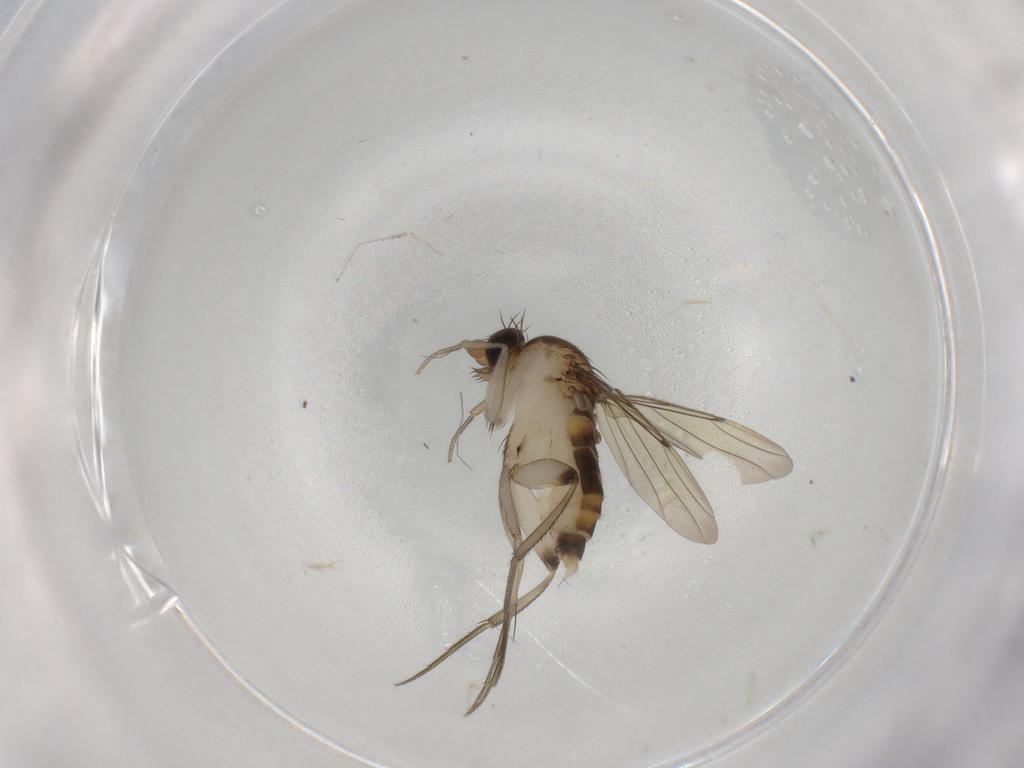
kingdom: Animalia
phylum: Arthropoda
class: Insecta
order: Diptera
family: Phoridae
